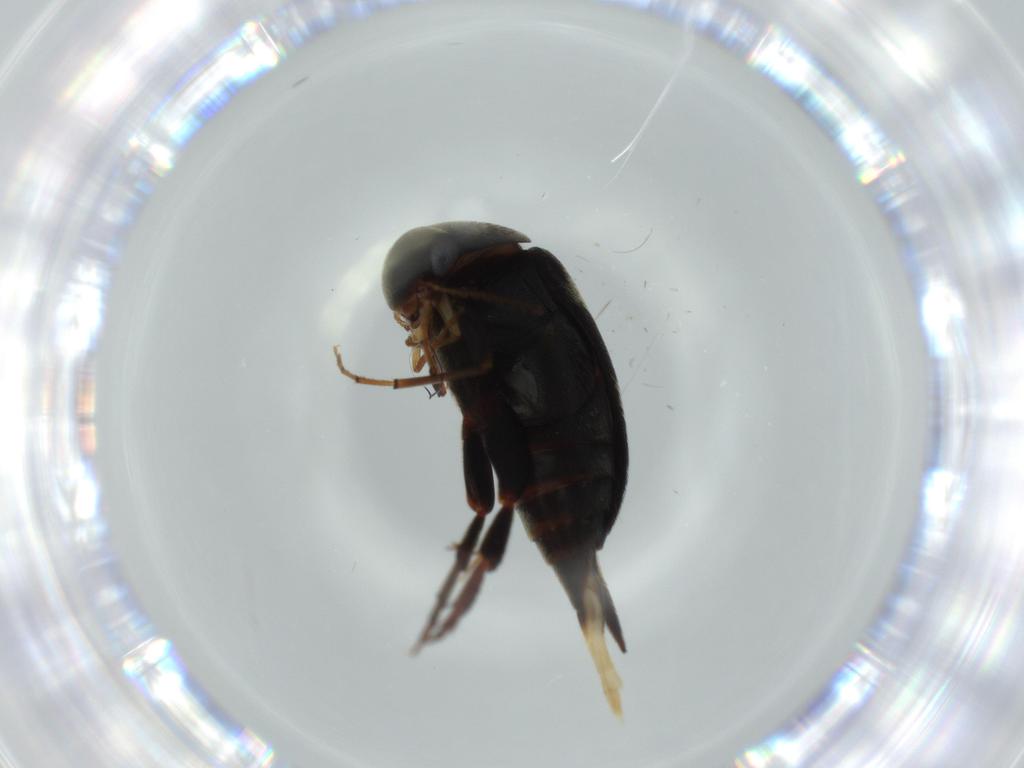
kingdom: Animalia
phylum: Arthropoda
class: Insecta
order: Coleoptera
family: Mordellidae
